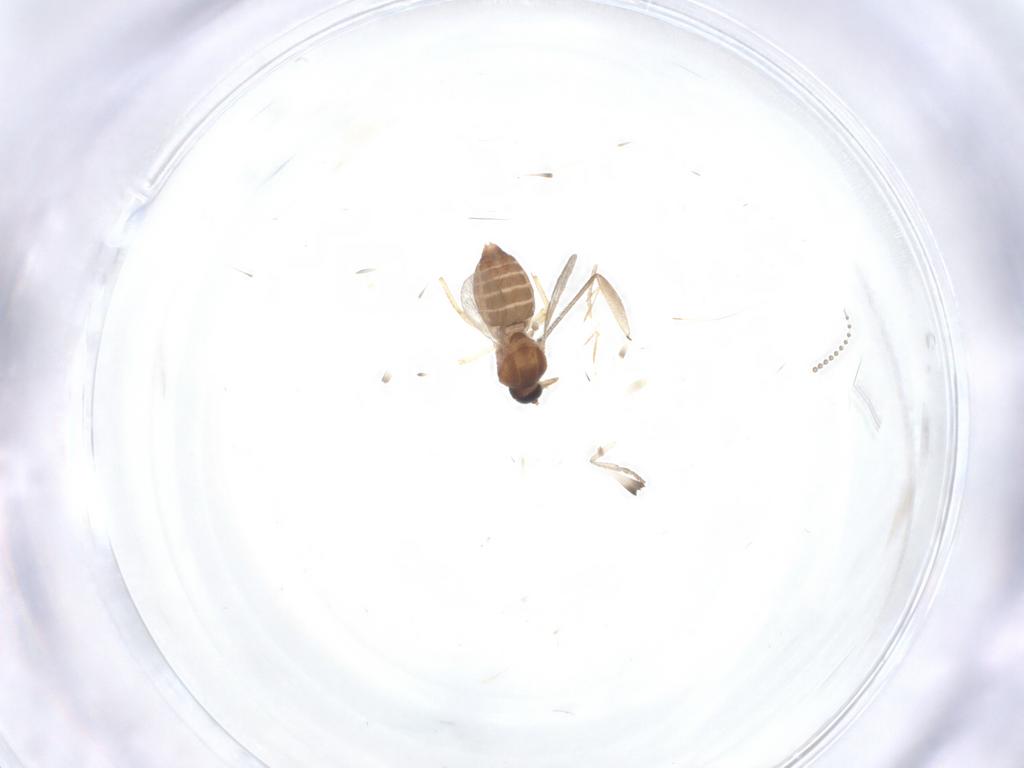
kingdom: Animalia
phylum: Arthropoda
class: Insecta
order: Diptera
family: Ceratopogonidae
